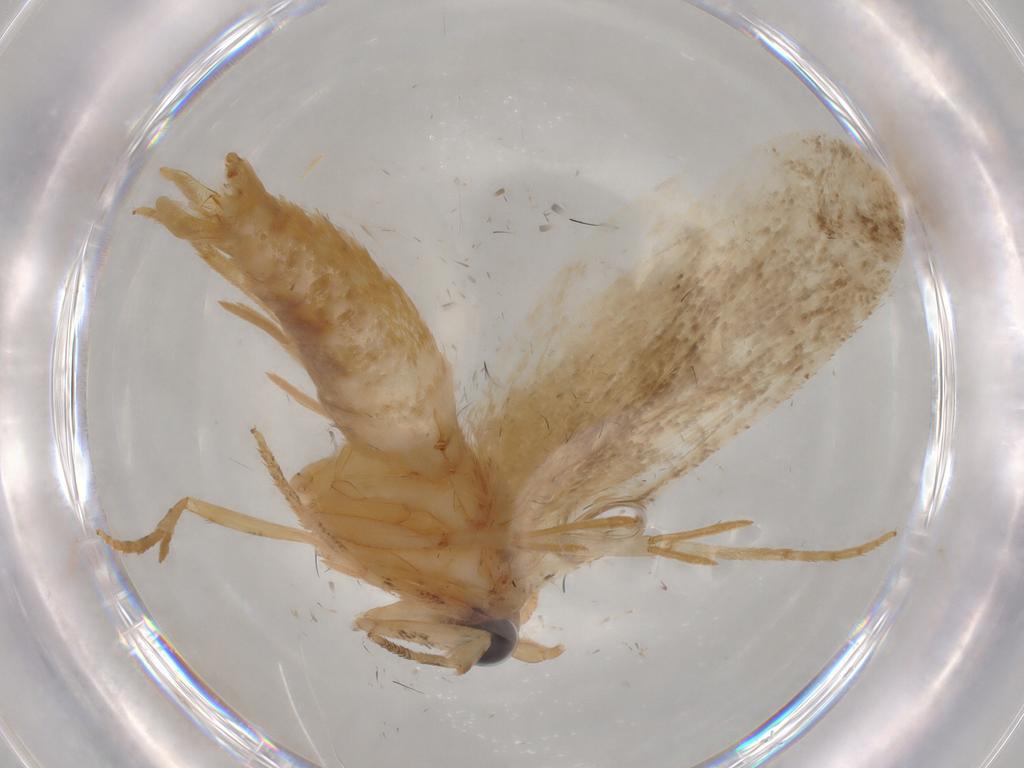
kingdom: Animalia
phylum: Arthropoda
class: Insecta
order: Lepidoptera
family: Gelechiidae
